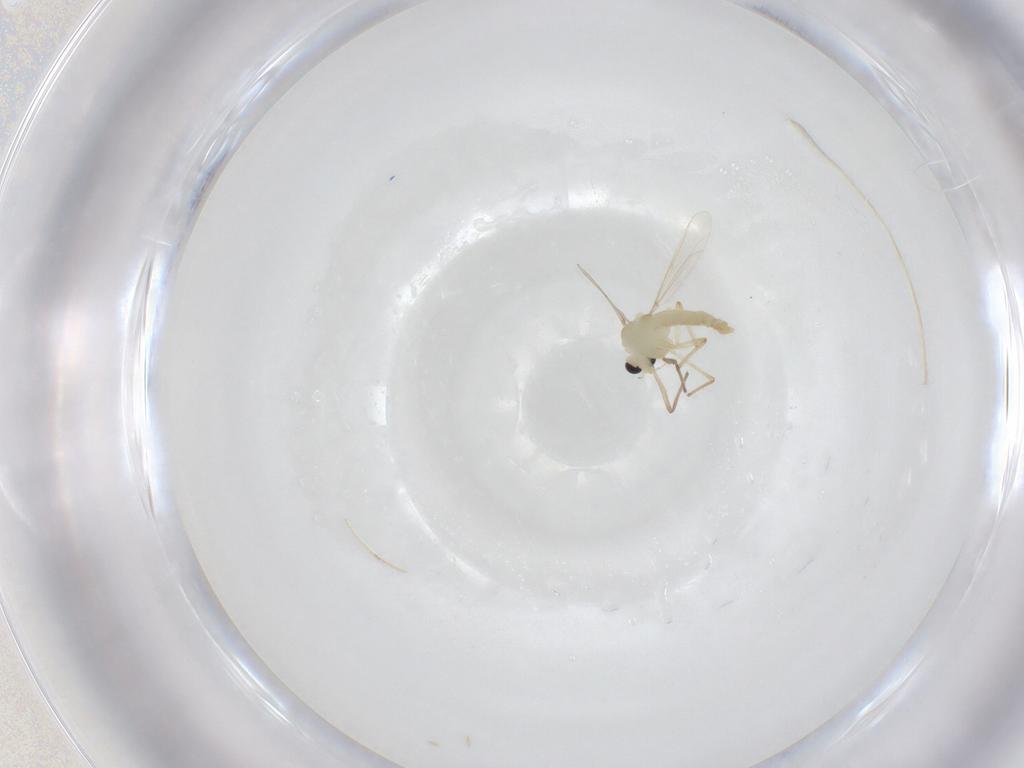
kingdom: Animalia
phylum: Arthropoda
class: Insecta
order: Diptera
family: Chironomidae
